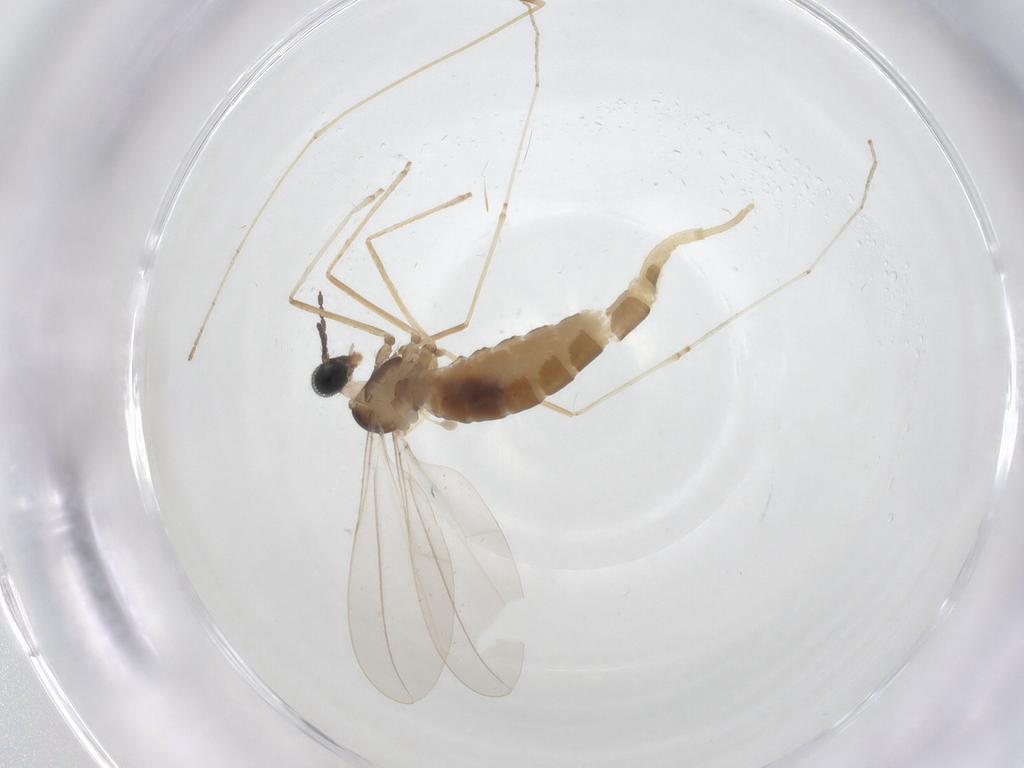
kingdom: Animalia
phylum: Arthropoda
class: Insecta
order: Diptera
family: Cecidomyiidae
